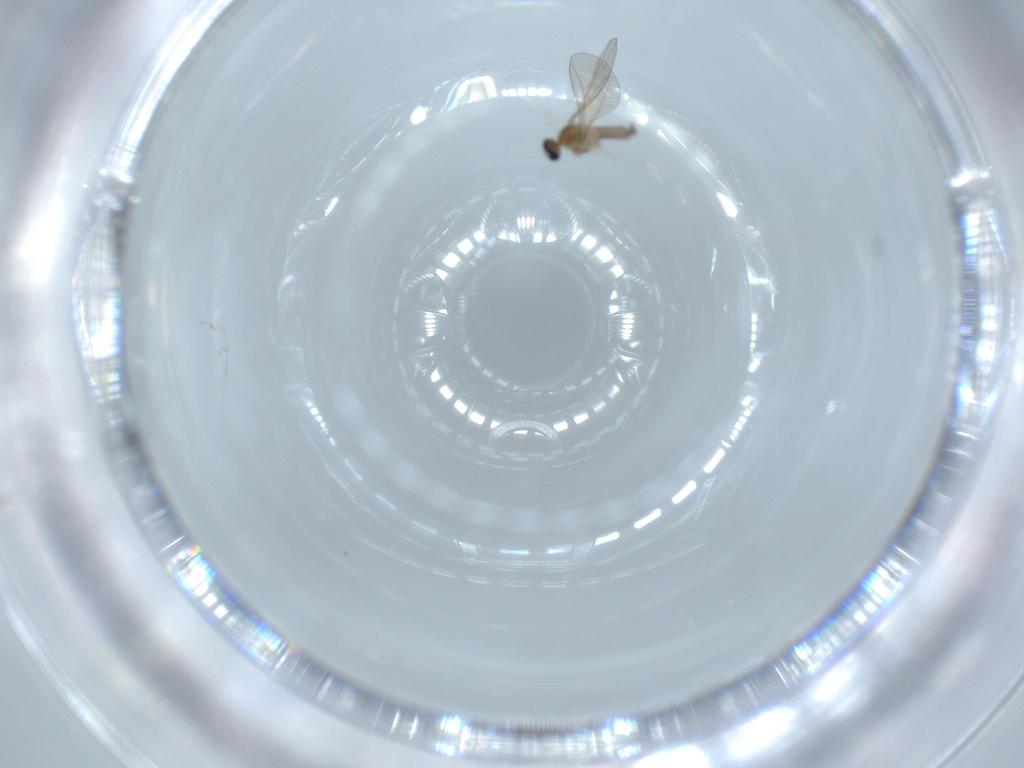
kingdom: Animalia
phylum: Arthropoda
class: Insecta
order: Diptera
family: Cecidomyiidae
